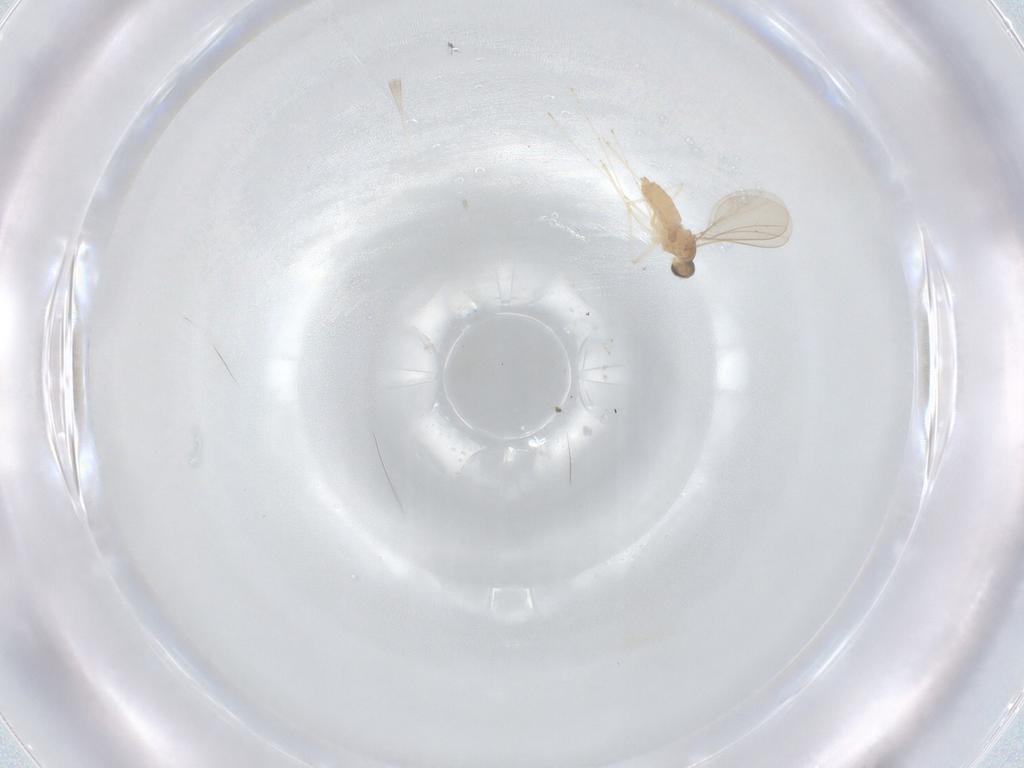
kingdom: Animalia
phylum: Arthropoda
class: Insecta
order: Diptera
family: Cecidomyiidae
